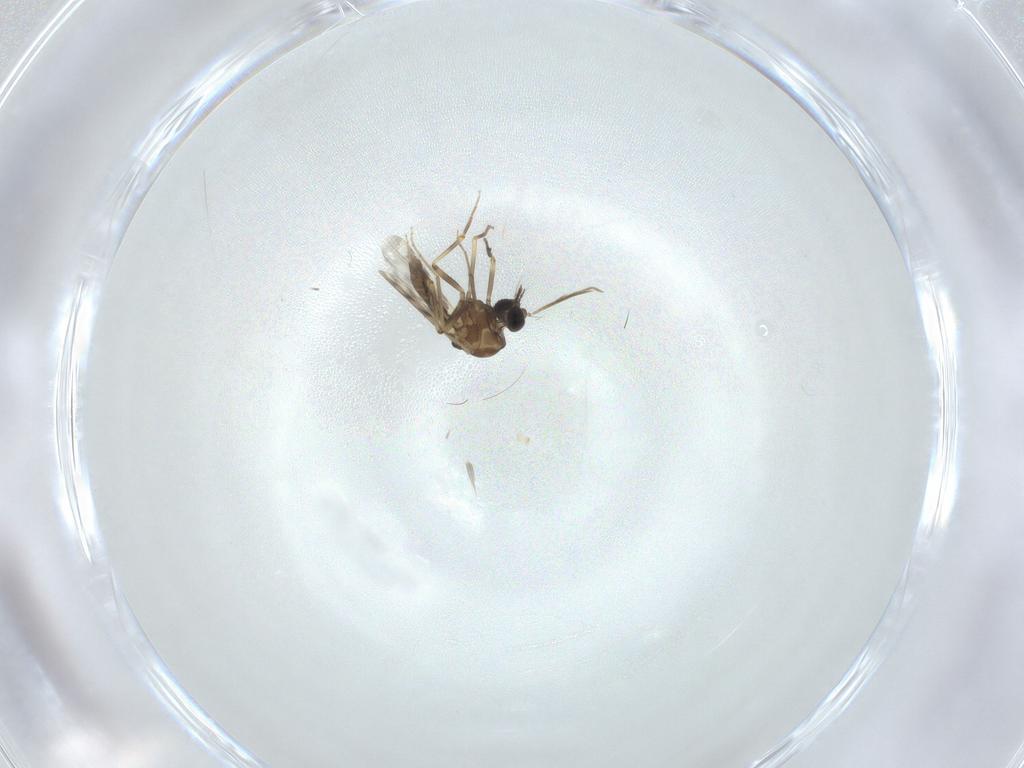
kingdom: Animalia
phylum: Arthropoda
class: Insecta
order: Diptera
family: Ceratopogonidae
